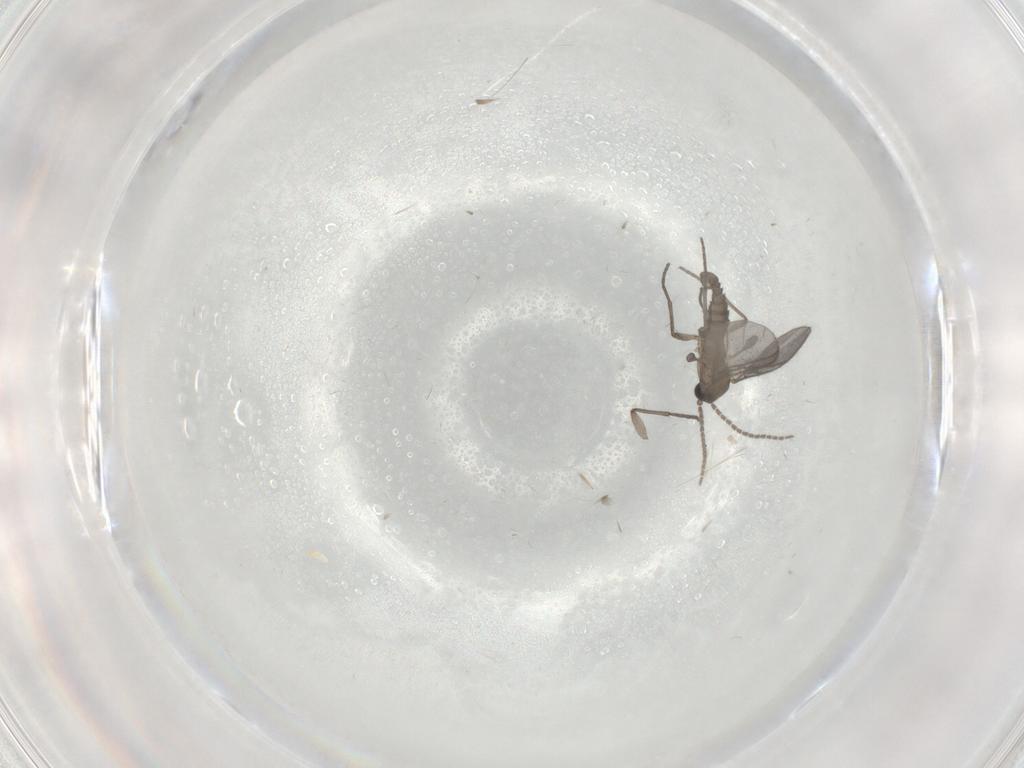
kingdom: Animalia
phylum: Arthropoda
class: Insecta
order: Diptera
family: Sciaridae
